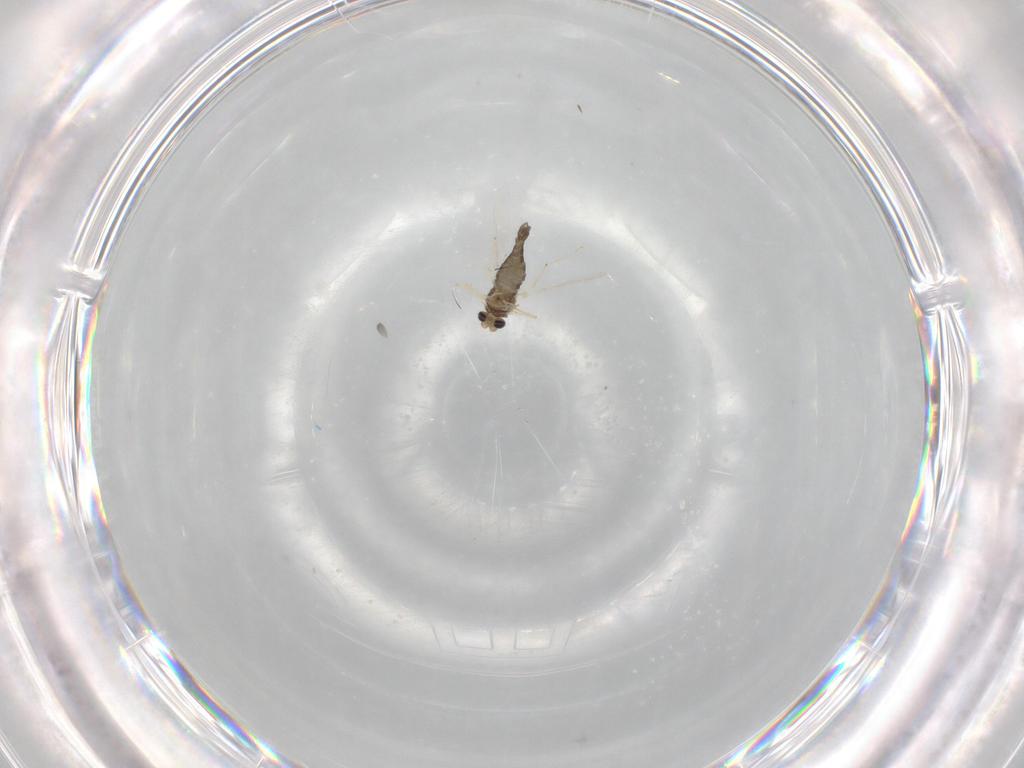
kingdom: Animalia
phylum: Arthropoda
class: Insecta
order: Diptera
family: Chironomidae
